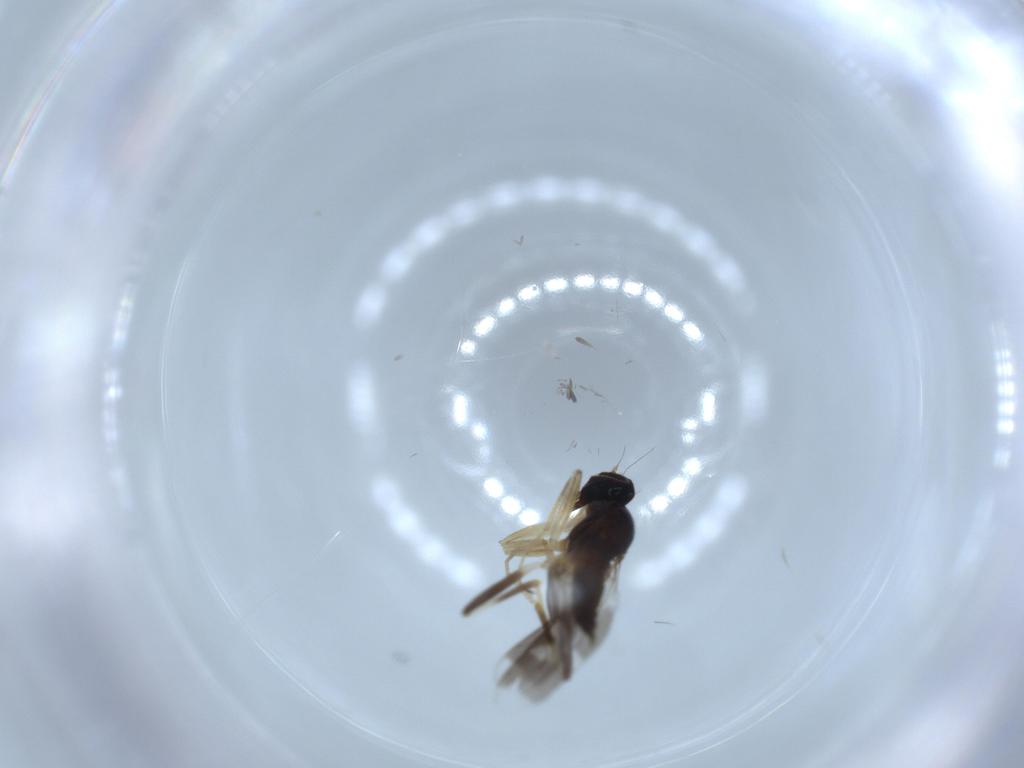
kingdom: Animalia
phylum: Arthropoda
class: Insecta
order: Diptera
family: Hybotidae
